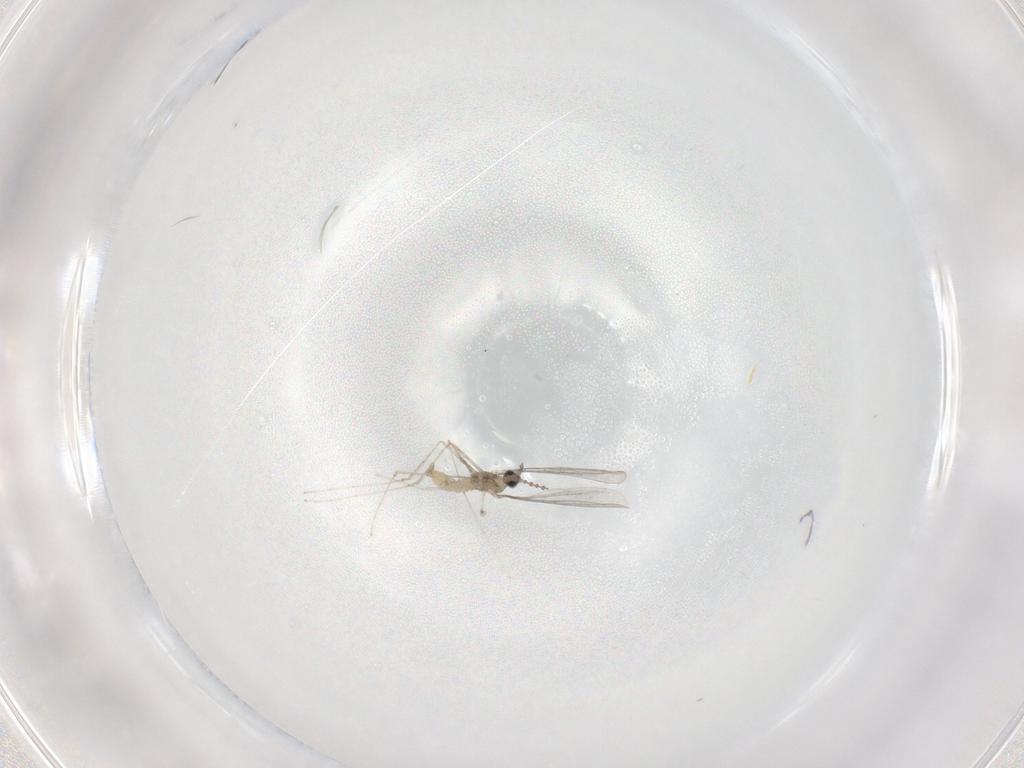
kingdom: Animalia
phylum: Arthropoda
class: Insecta
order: Diptera
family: Cecidomyiidae
